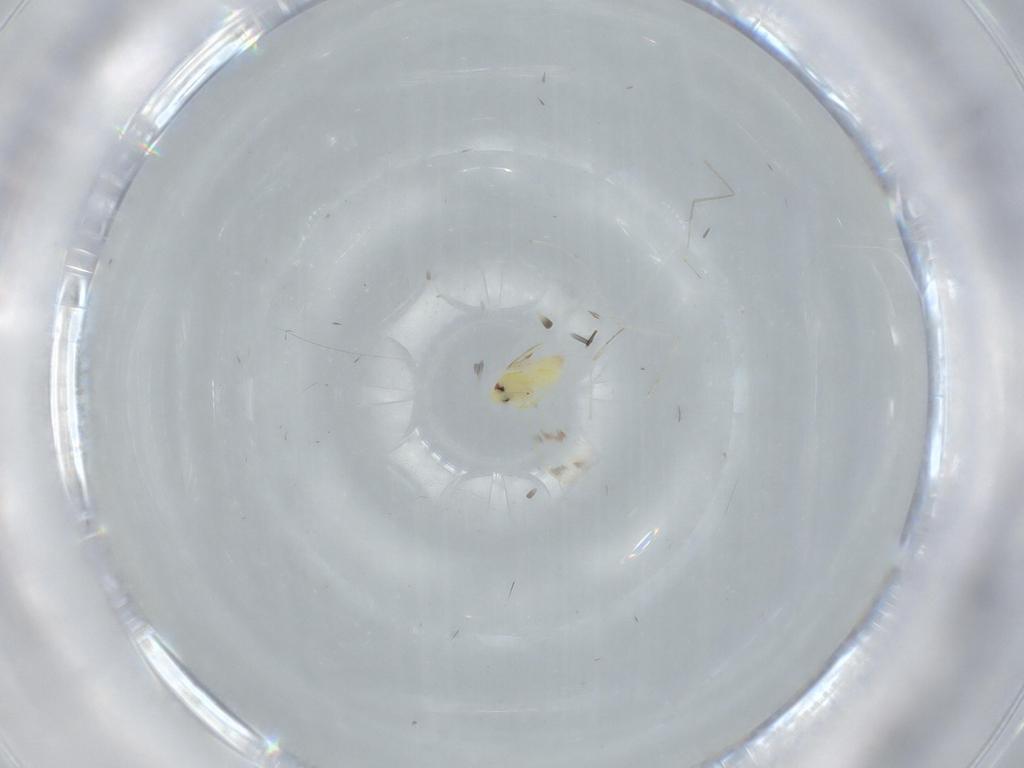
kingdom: Animalia
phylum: Arthropoda
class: Insecta
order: Hemiptera
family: Aleyrodidae
